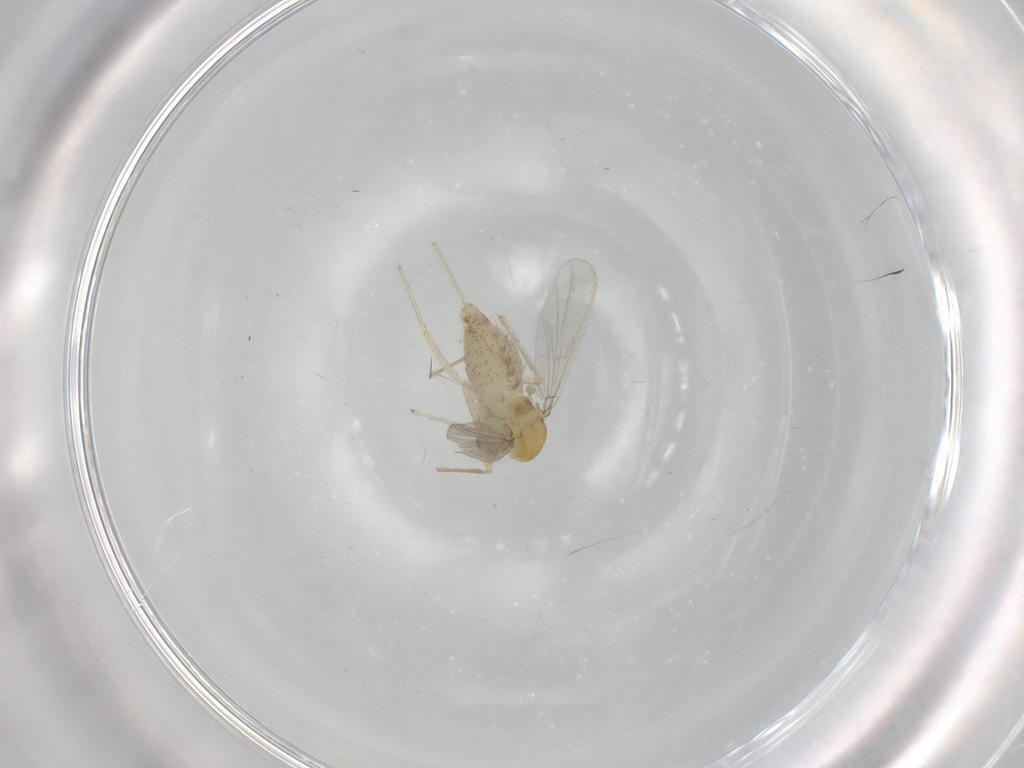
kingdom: Animalia
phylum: Arthropoda
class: Insecta
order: Diptera
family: Chironomidae
